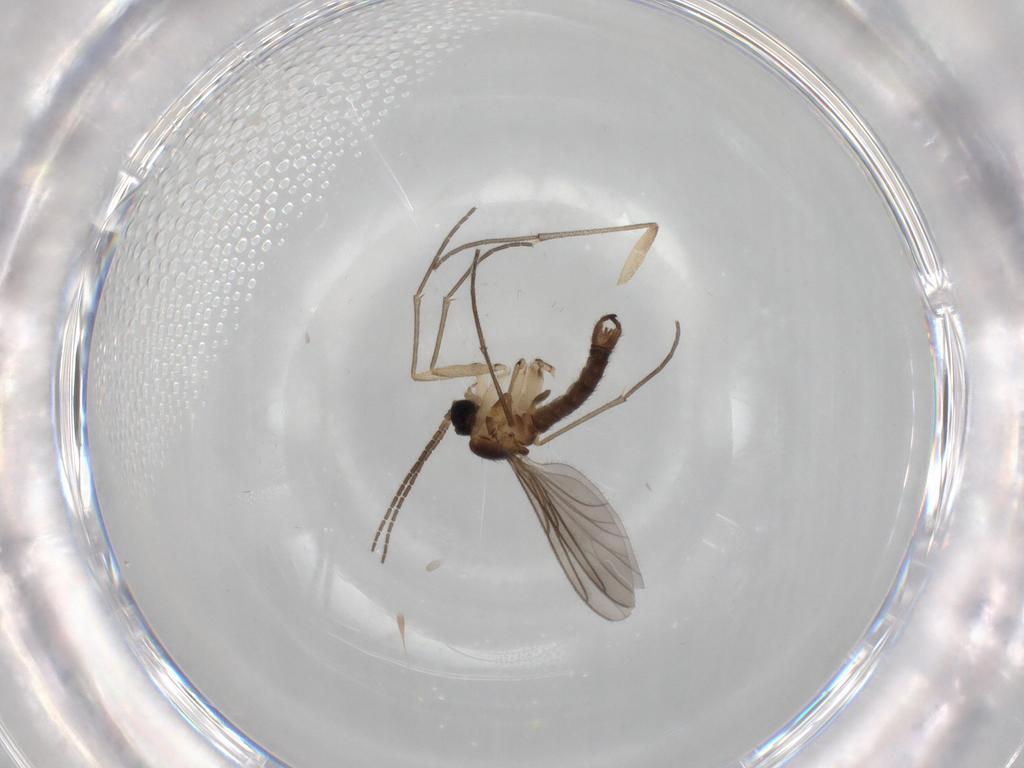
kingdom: Animalia
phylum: Arthropoda
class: Insecta
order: Diptera
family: Sciaridae
